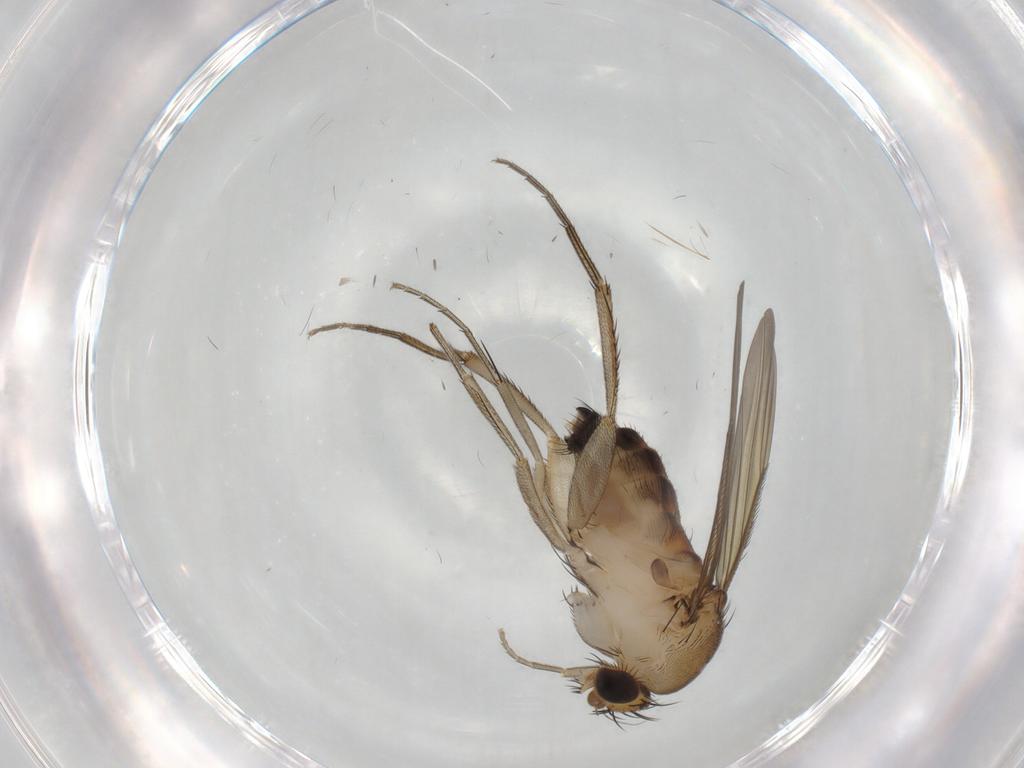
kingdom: Animalia
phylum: Arthropoda
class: Insecta
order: Diptera
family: Phoridae
